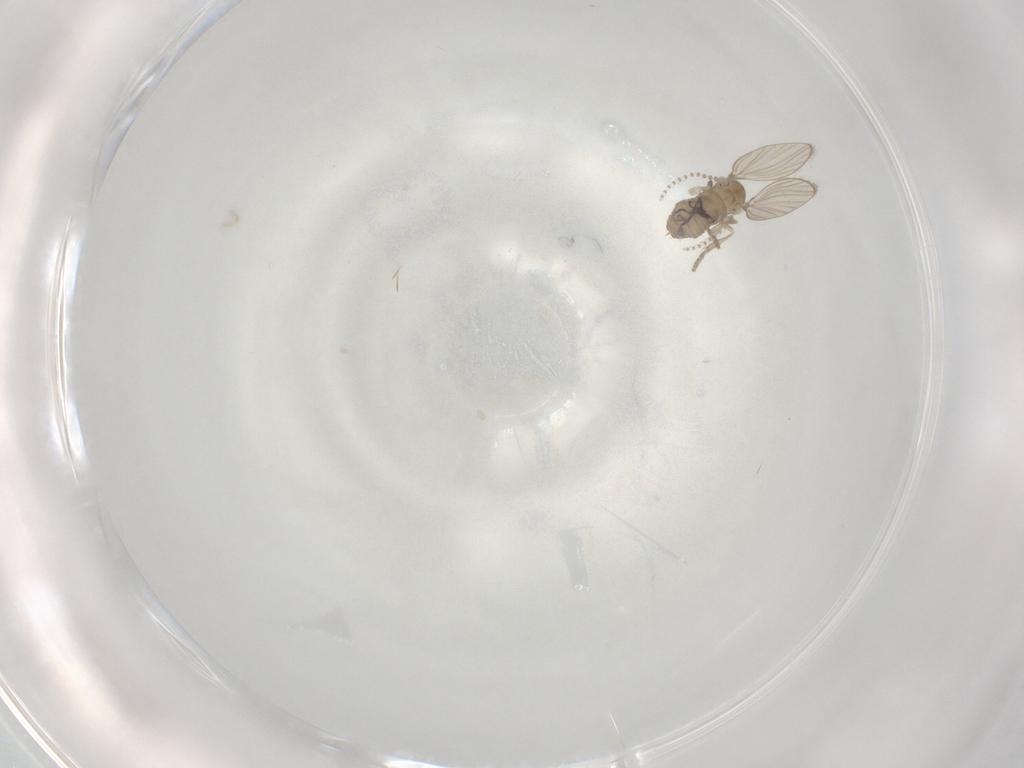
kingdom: Animalia
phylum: Arthropoda
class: Insecta
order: Diptera
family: Psychodidae
